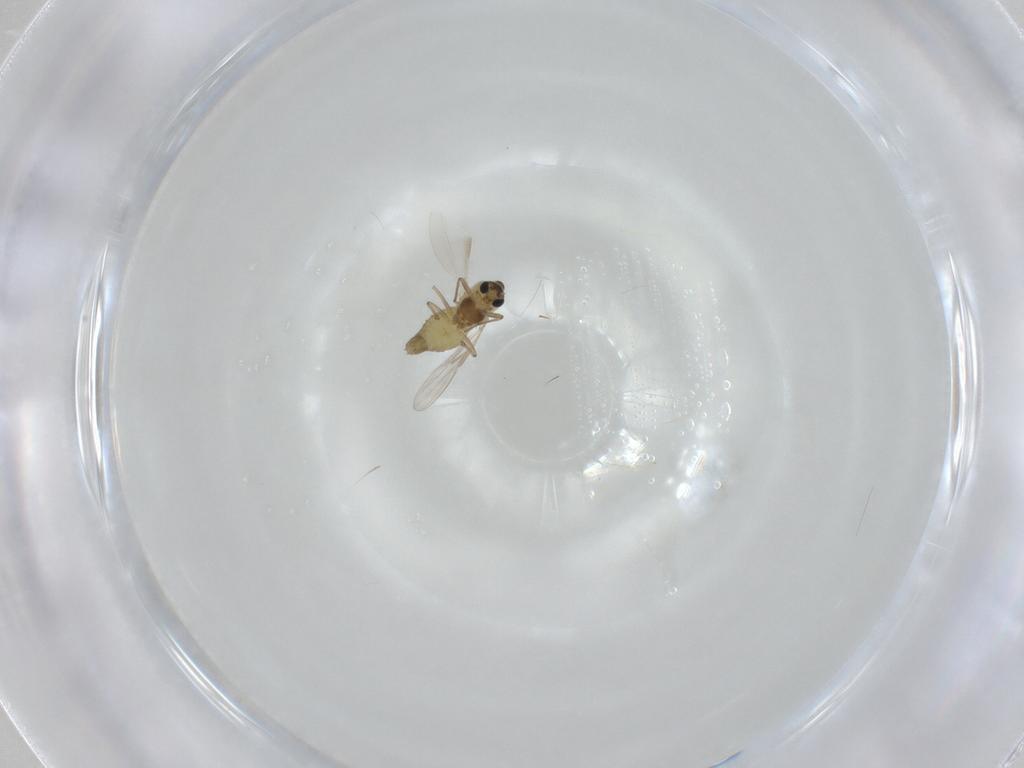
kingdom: Animalia
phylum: Arthropoda
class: Insecta
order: Diptera
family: Chironomidae
